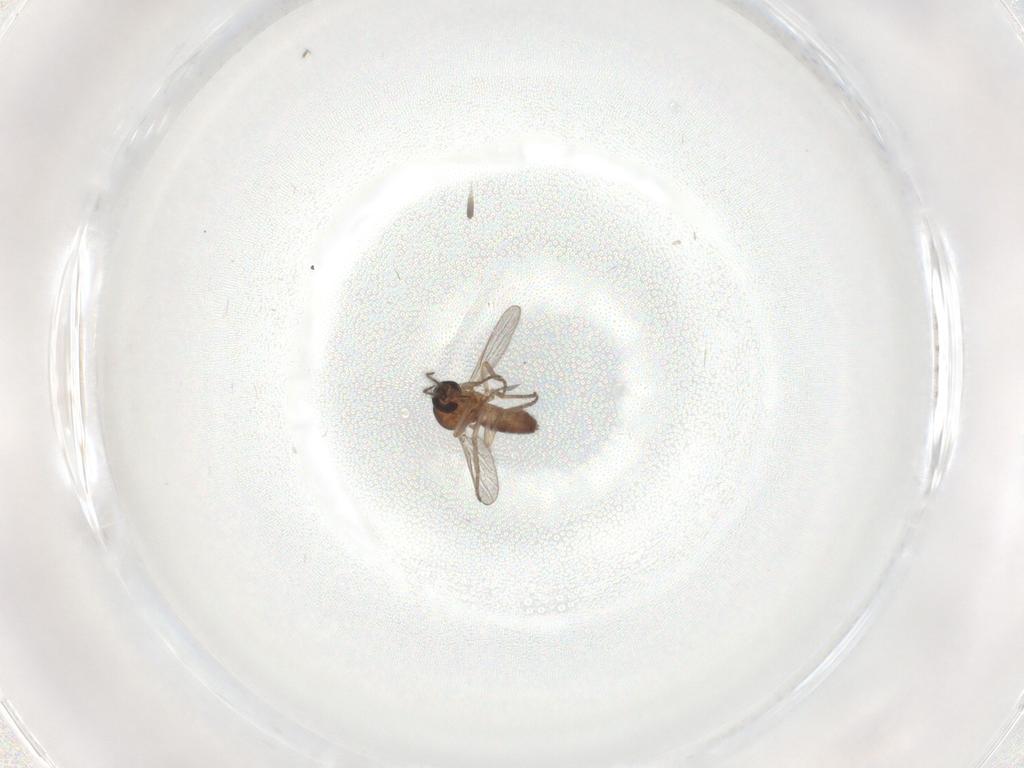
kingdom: Animalia
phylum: Arthropoda
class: Insecta
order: Diptera
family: Ceratopogonidae
